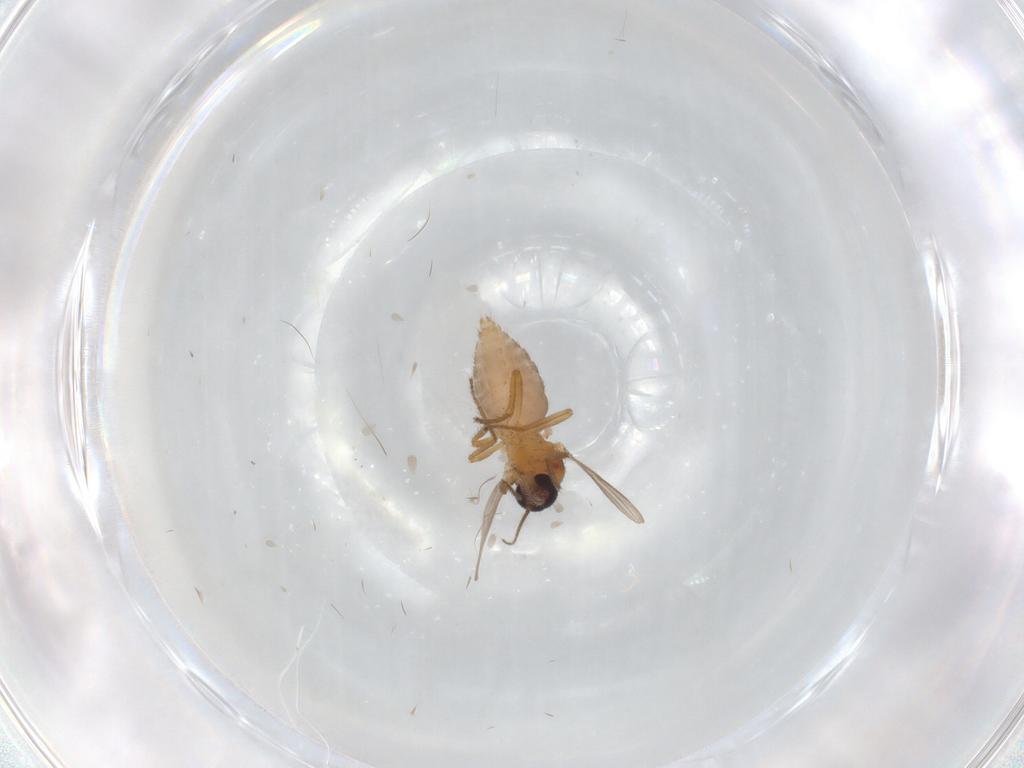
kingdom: Animalia
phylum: Arthropoda
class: Insecta
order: Diptera
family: Ceratopogonidae
